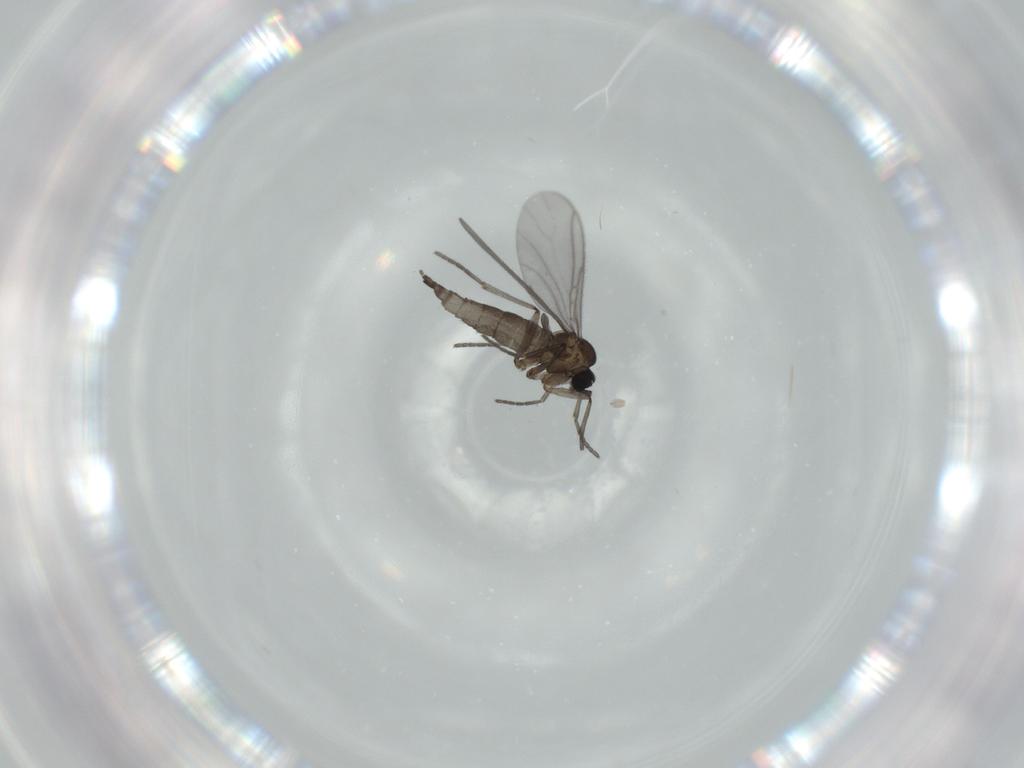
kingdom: Animalia
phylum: Arthropoda
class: Insecta
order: Diptera
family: Sciaridae
